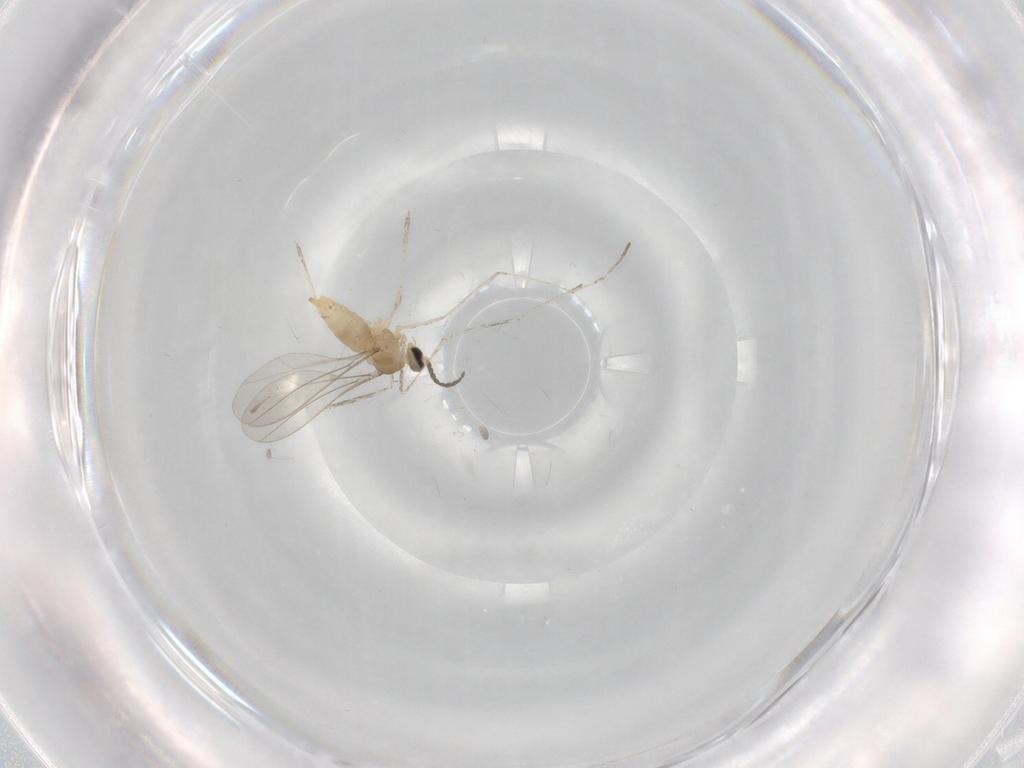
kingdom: Animalia
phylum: Arthropoda
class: Insecta
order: Diptera
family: Cecidomyiidae
